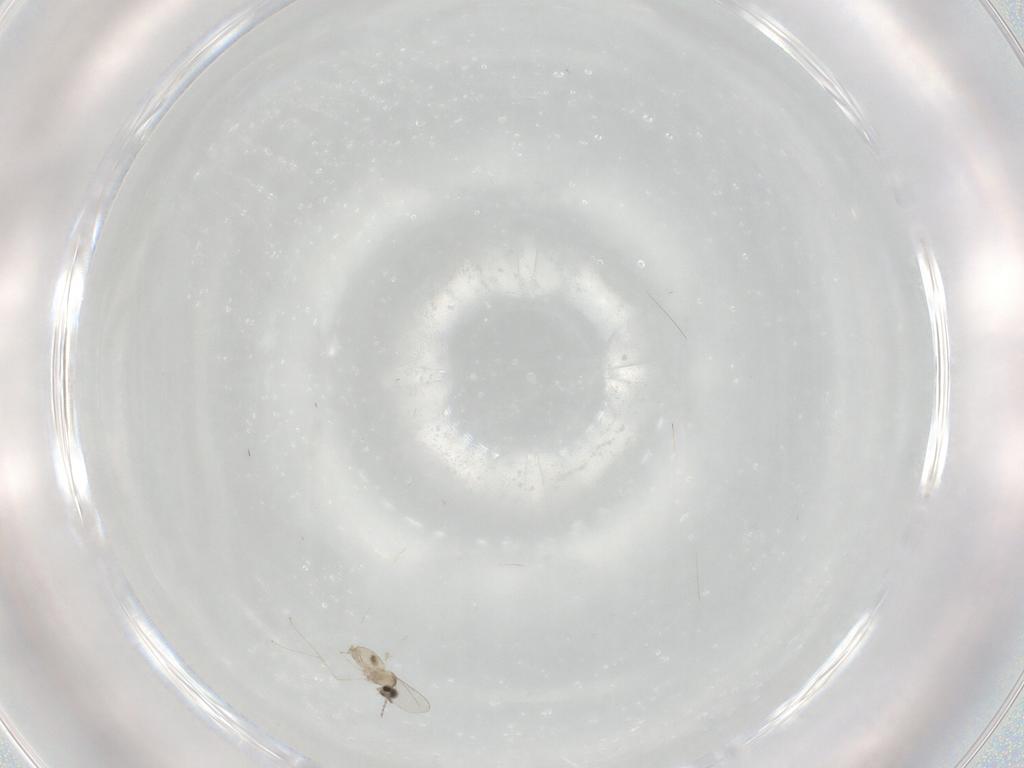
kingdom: Animalia
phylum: Arthropoda
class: Insecta
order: Diptera
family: Cecidomyiidae
